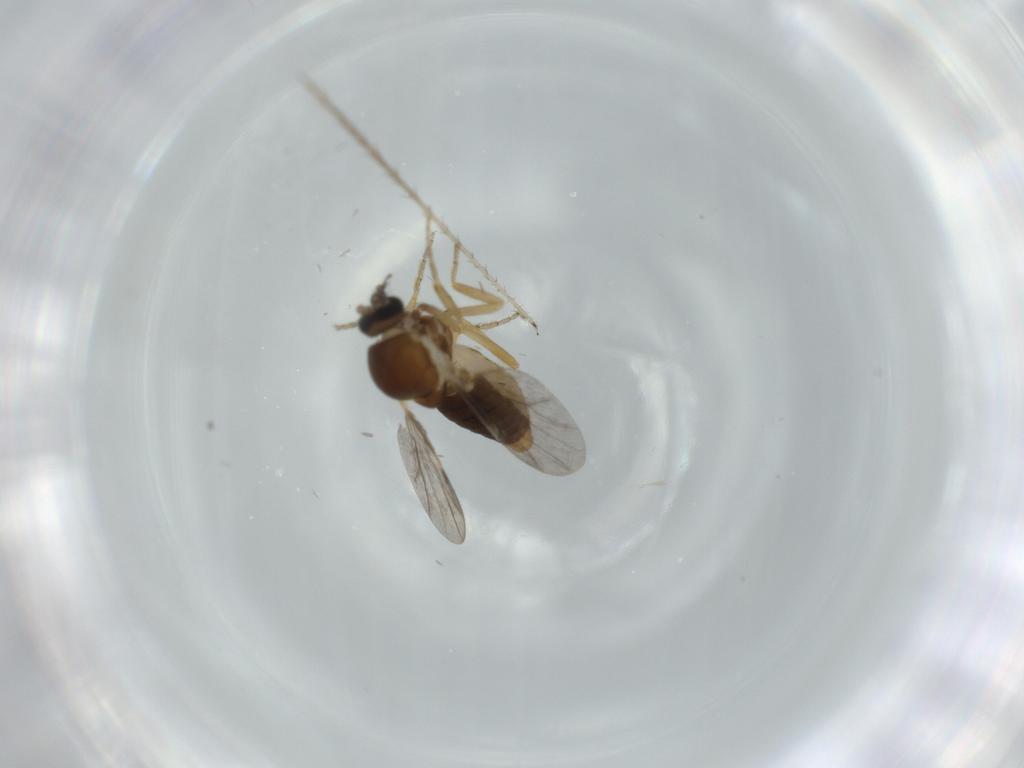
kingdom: Animalia
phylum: Arthropoda
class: Insecta
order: Diptera
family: Ceratopogonidae
